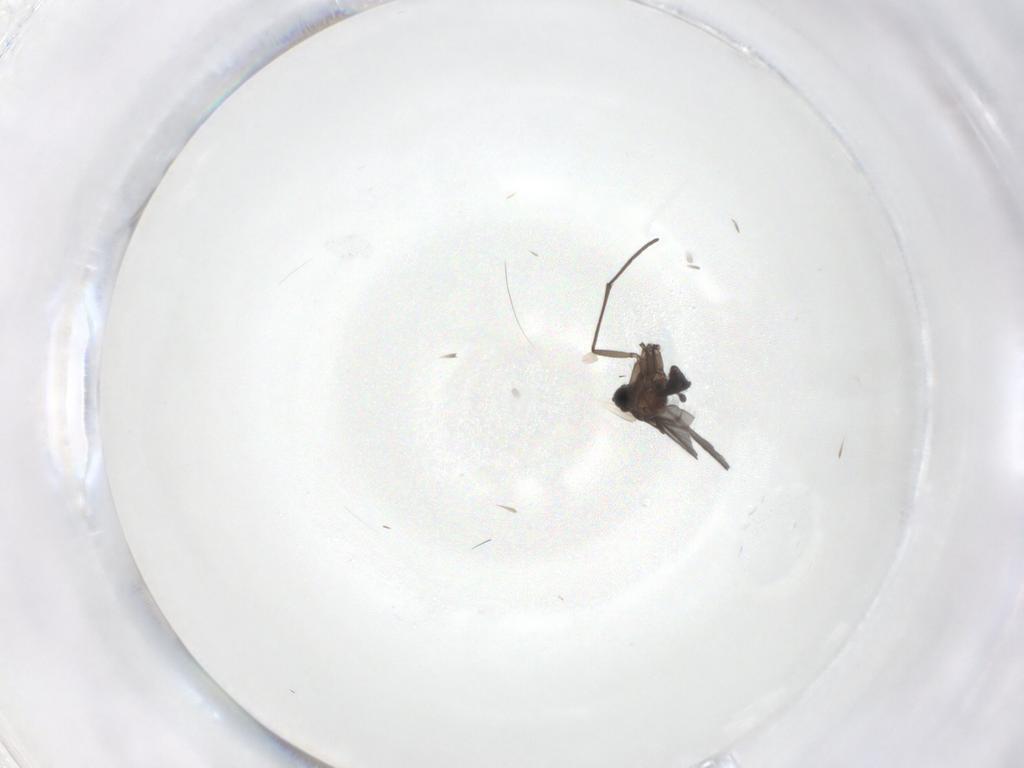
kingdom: Animalia
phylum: Arthropoda
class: Insecta
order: Diptera
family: Sciaridae
